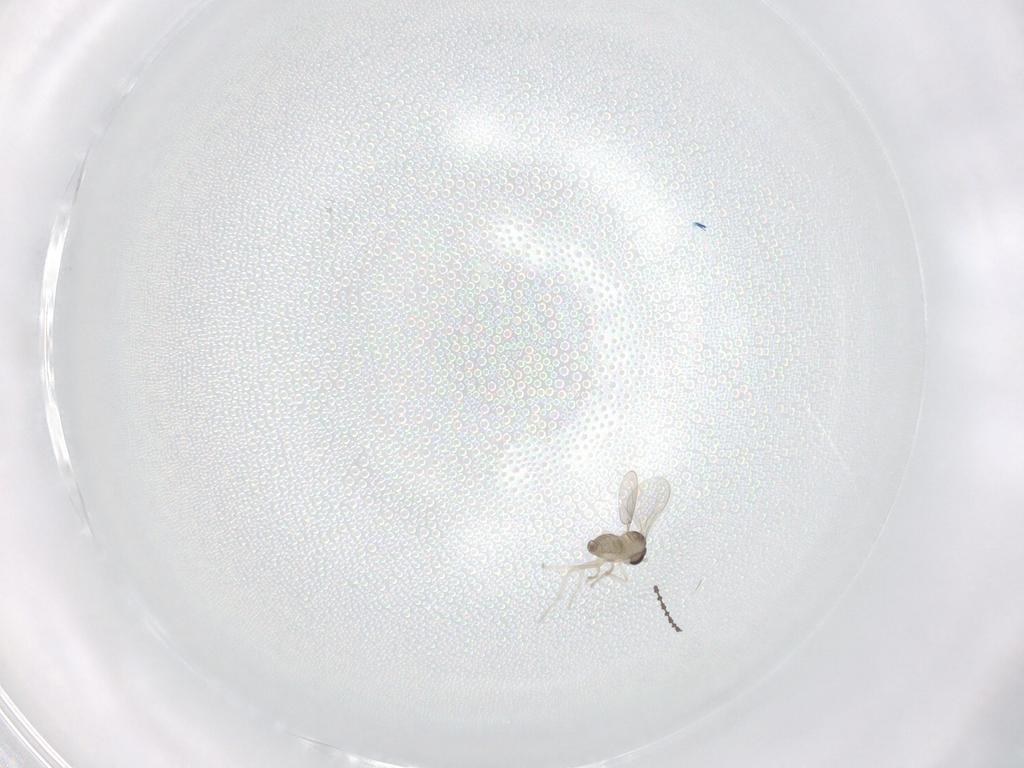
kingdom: Animalia
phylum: Arthropoda
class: Insecta
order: Diptera
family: Cecidomyiidae
